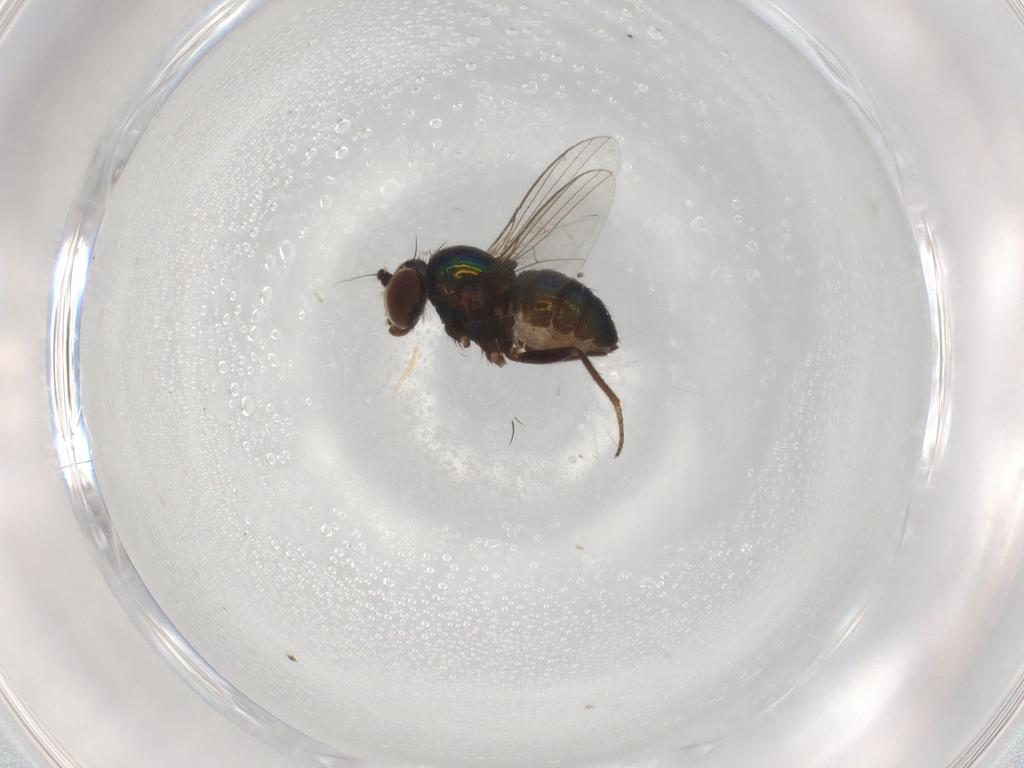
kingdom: Animalia
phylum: Arthropoda
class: Insecta
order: Diptera
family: Dolichopodidae
